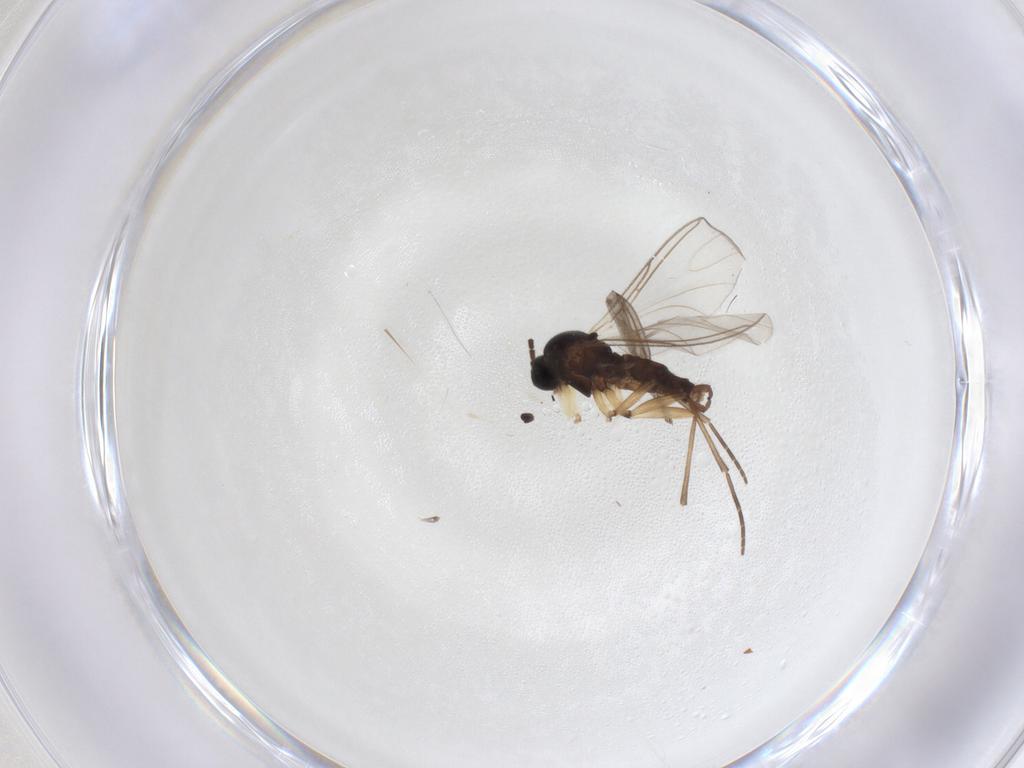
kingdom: Animalia
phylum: Arthropoda
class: Insecta
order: Diptera
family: Sciaridae
